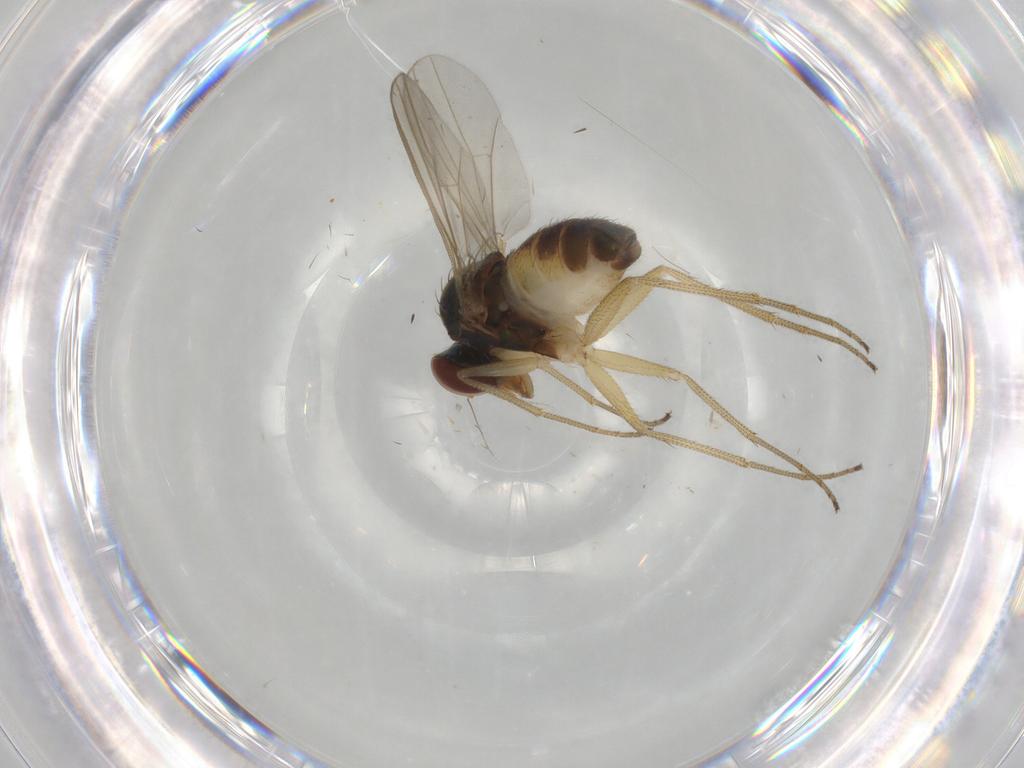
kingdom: Animalia
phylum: Arthropoda
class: Insecta
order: Diptera
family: Dolichopodidae
